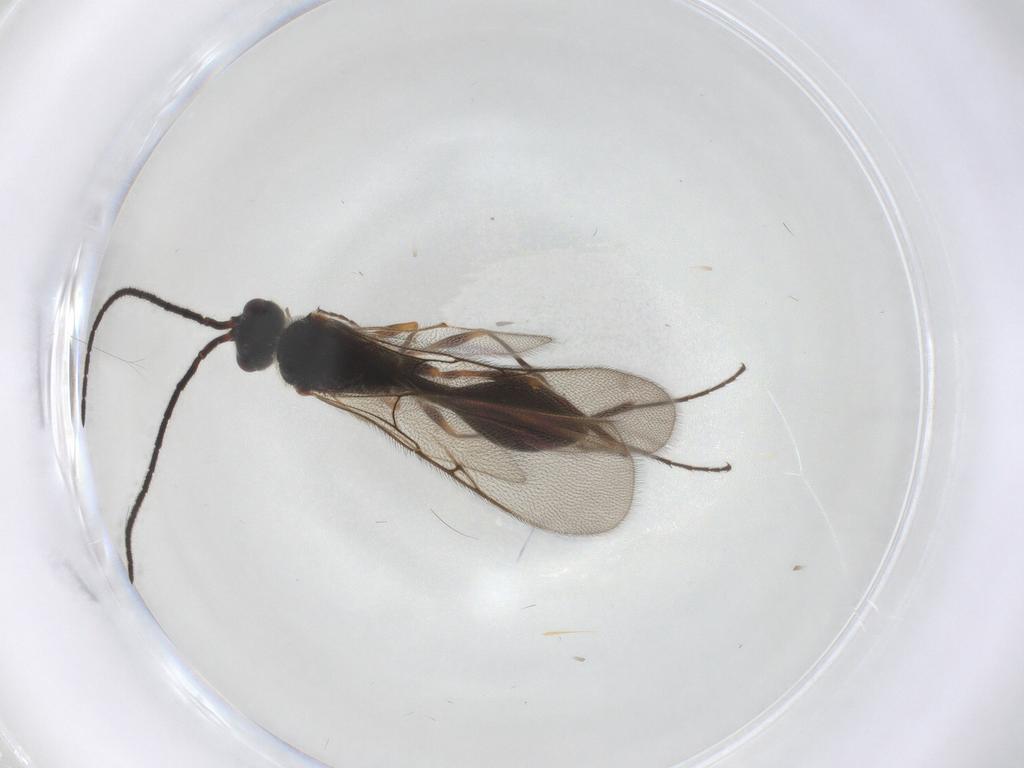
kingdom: Animalia
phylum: Arthropoda
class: Insecta
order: Hymenoptera
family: Diapriidae
